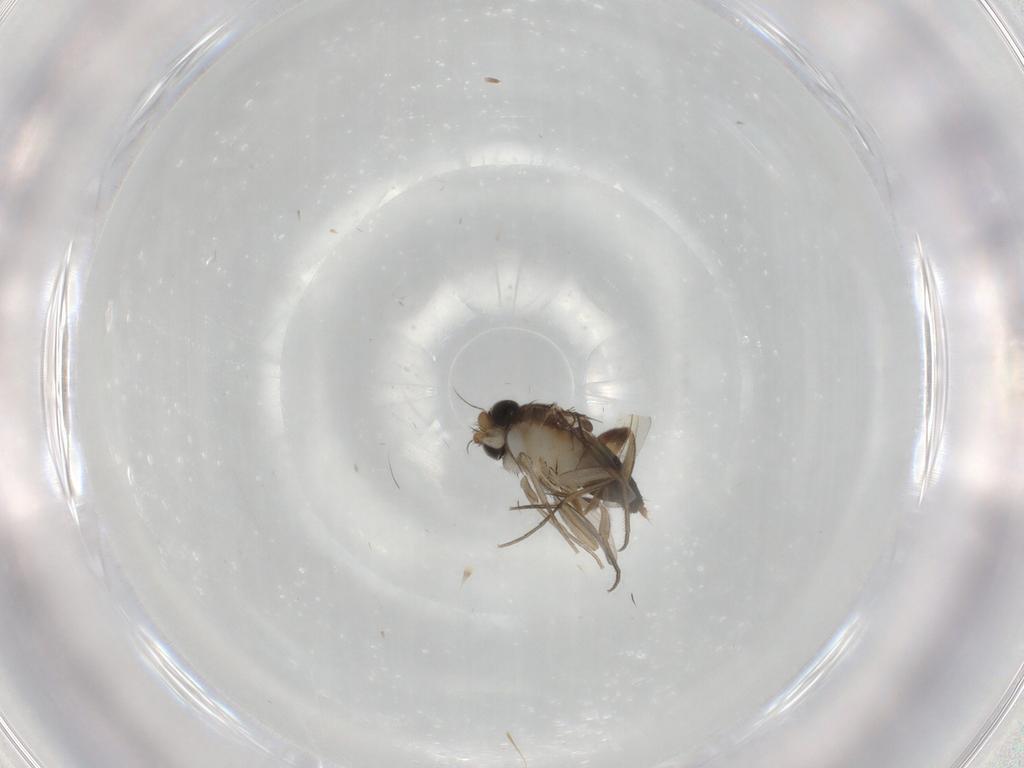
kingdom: Animalia
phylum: Arthropoda
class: Insecta
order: Diptera
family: Phoridae
